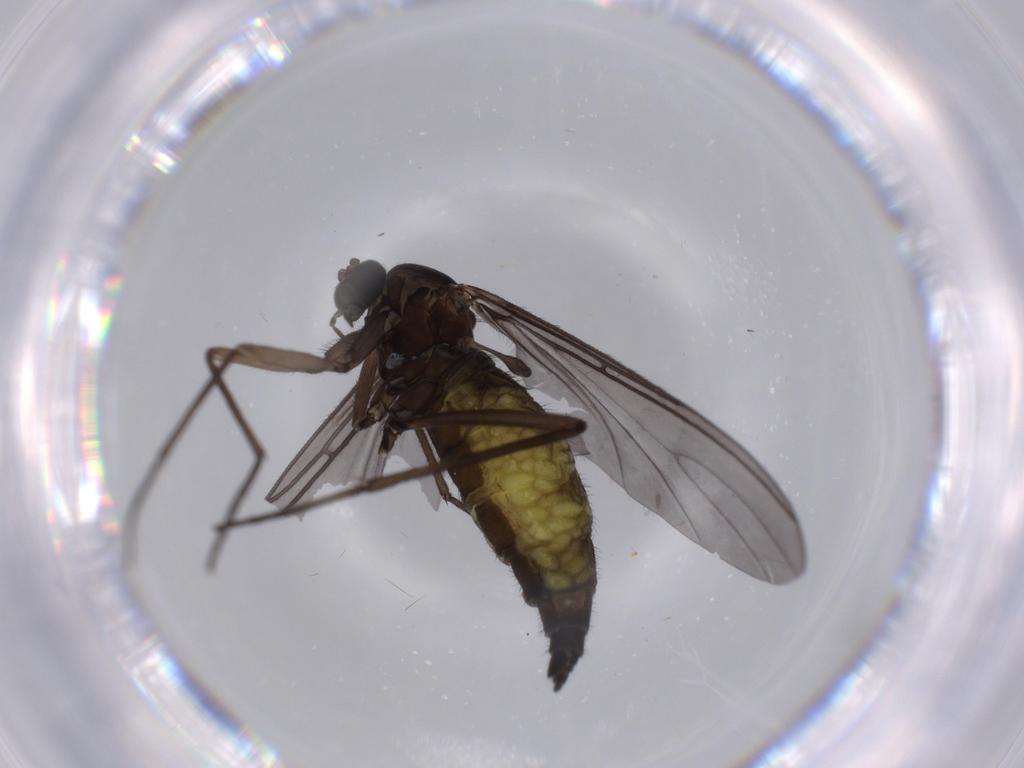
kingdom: Animalia
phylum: Arthropoda
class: Insecta
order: Diptera
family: Sciaridae
